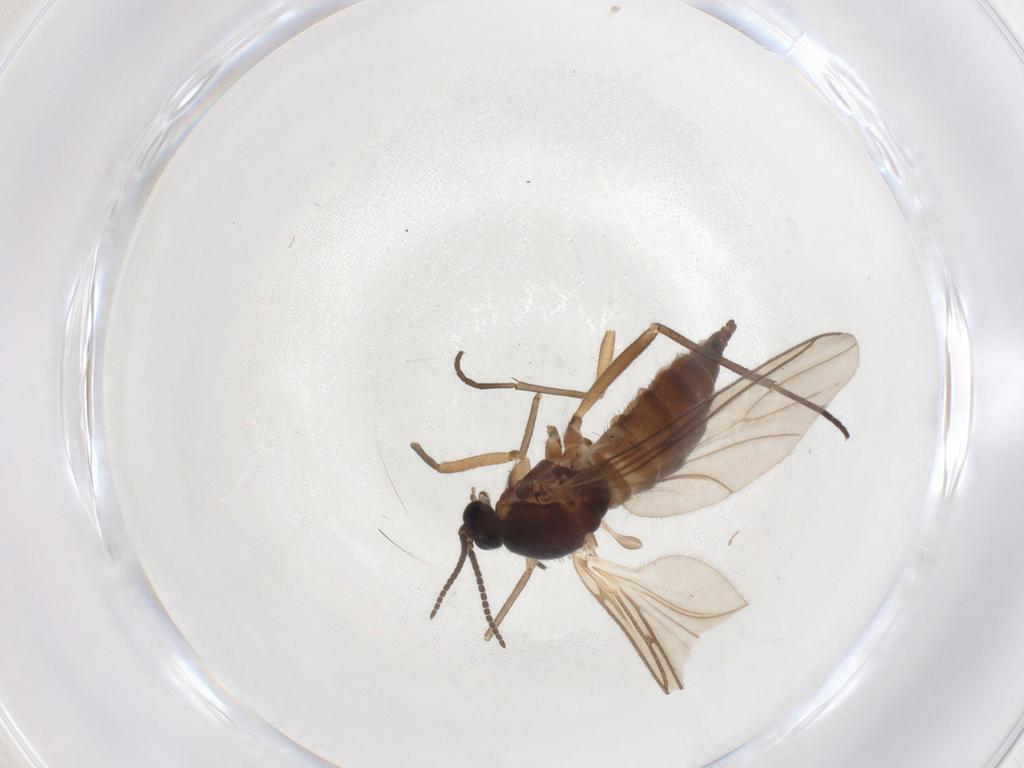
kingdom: Animalia
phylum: Arthropoda
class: Insecta
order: Diptera
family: Sciaridae
